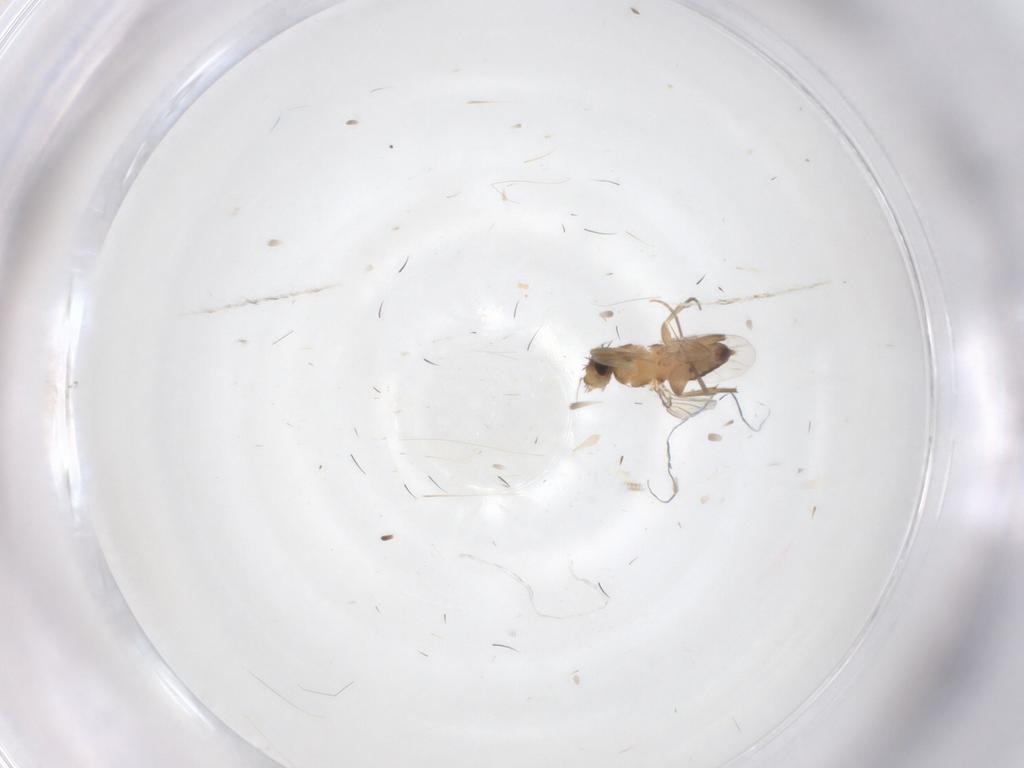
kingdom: Animalia
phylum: Arthropoda
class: Insecta
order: Diptera
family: Phoridae
